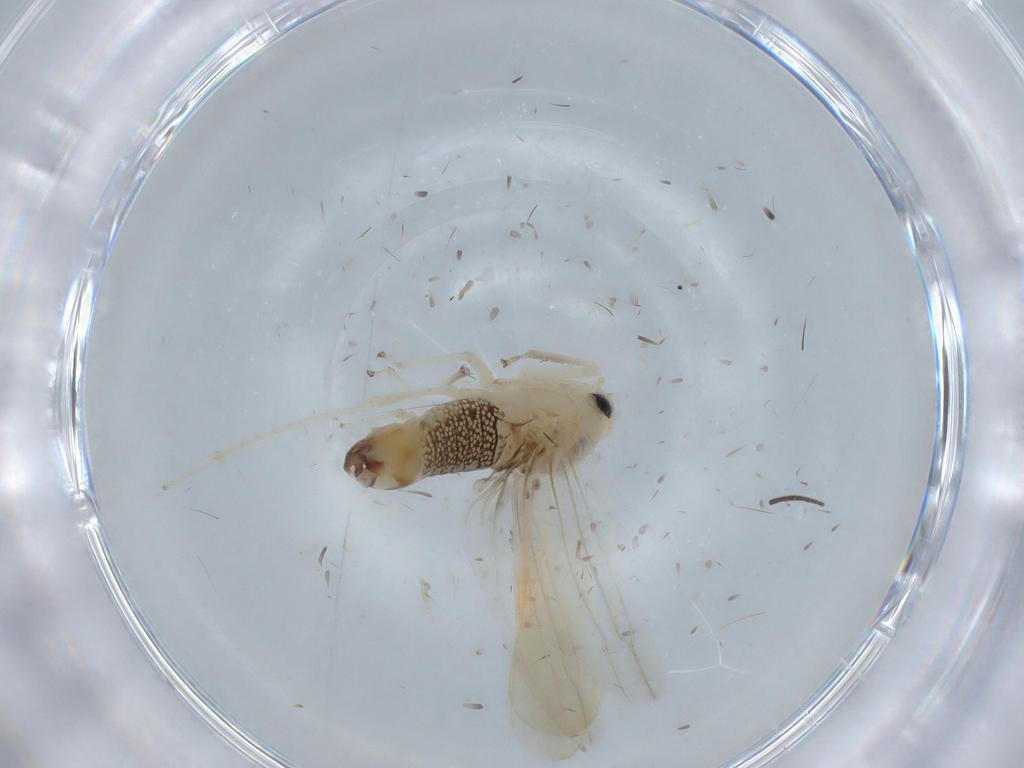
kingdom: Animalia
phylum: Arthropoda
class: Insecta
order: Hemiptera
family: Cicadellidae
